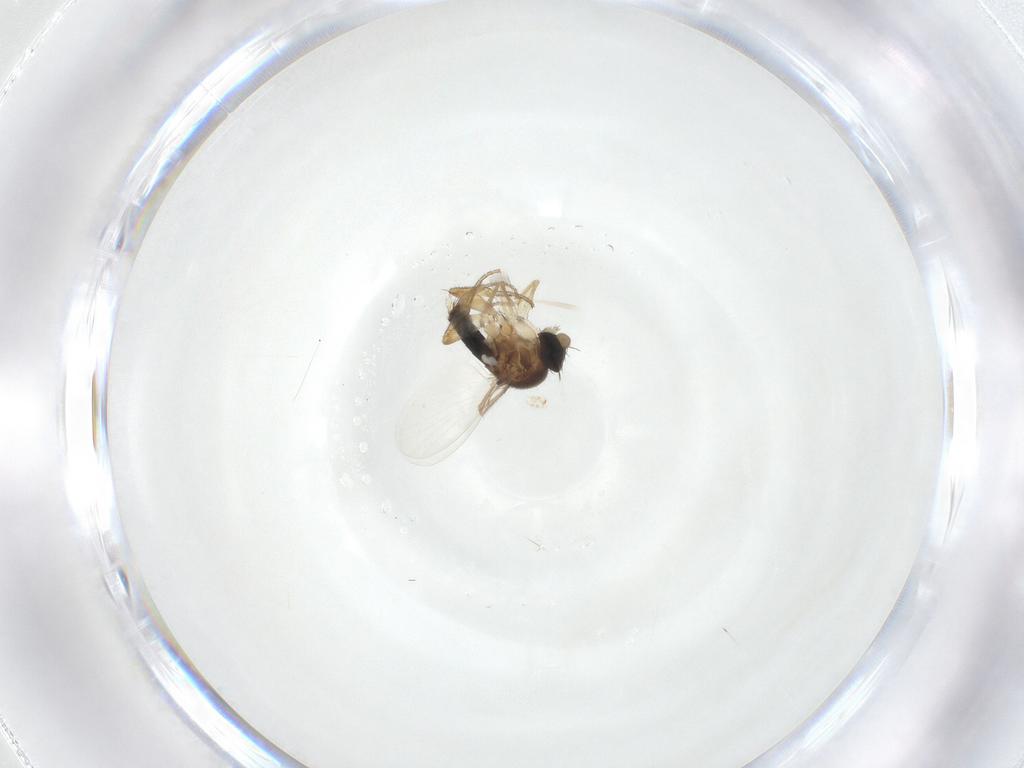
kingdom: Animalia
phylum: Arthropoda
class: Insecta
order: Diptera
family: Phoridae
